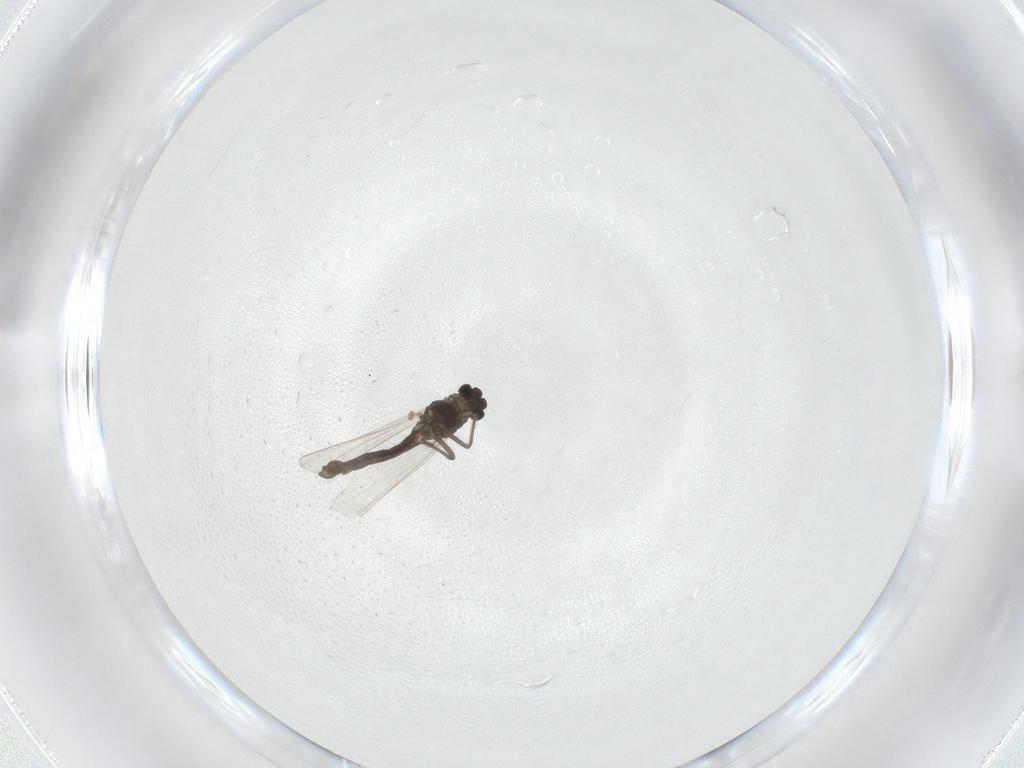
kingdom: Animalia
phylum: Arthropoda
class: Insecta
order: Diptera
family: Chironomidae
